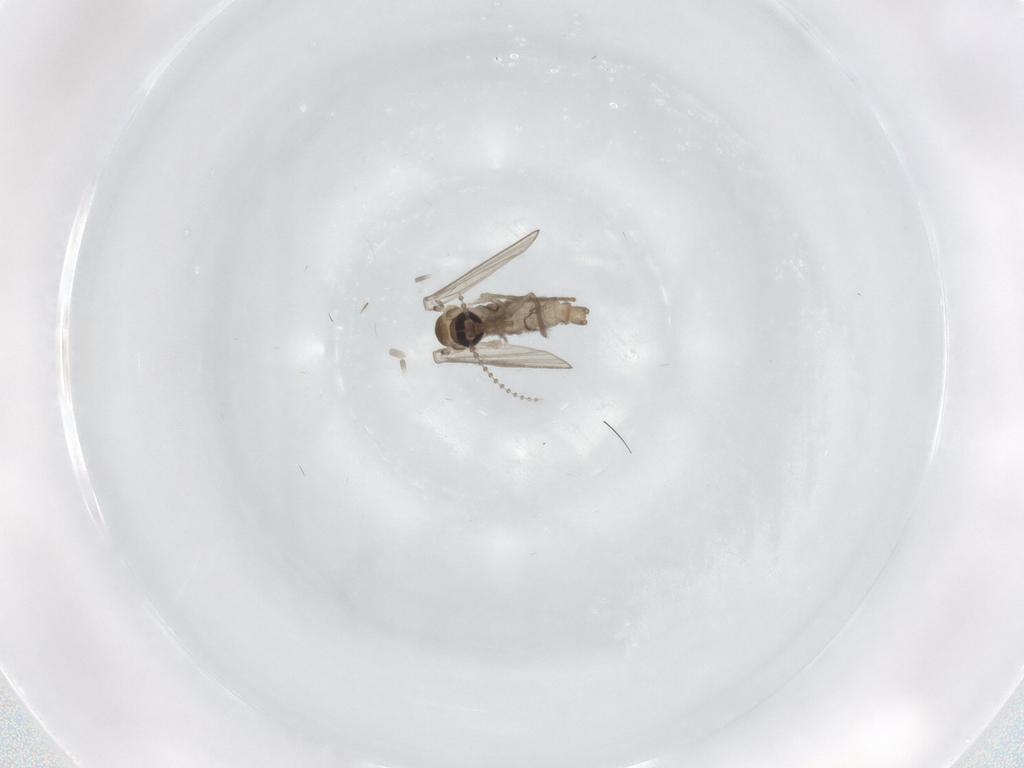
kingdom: Animalia
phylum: Arthropoda
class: Insecta
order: Diptera
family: Psychodidae
